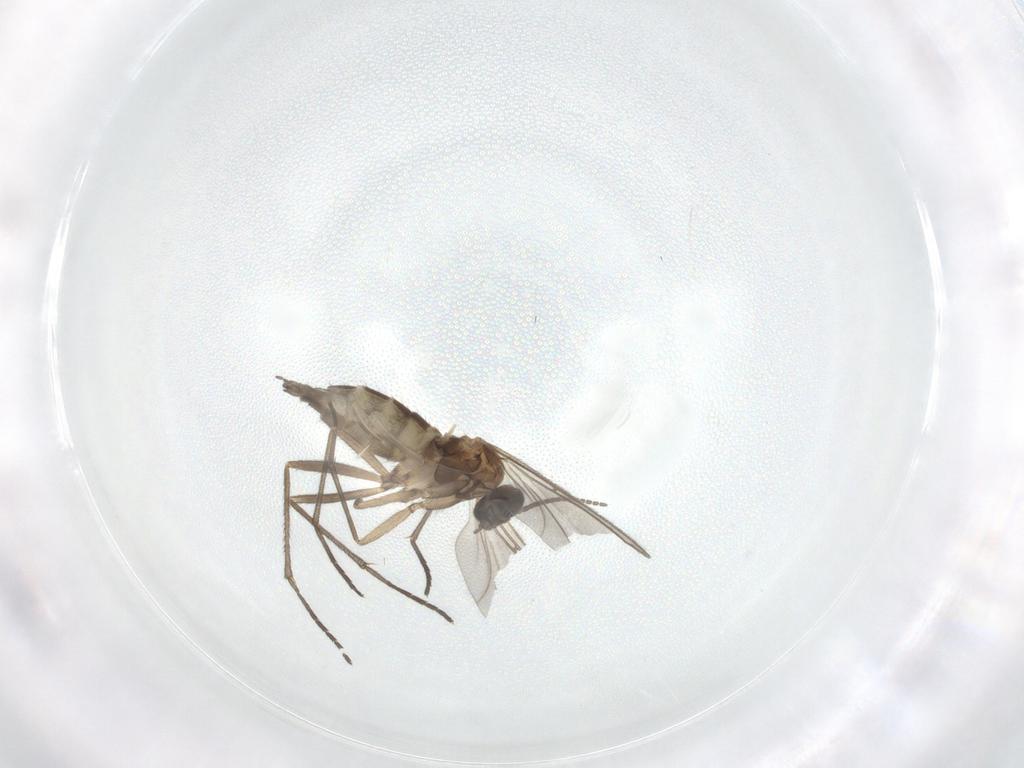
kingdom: Animalia
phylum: Arthropoda
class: Insecta
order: Diptera
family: Sciaridae
